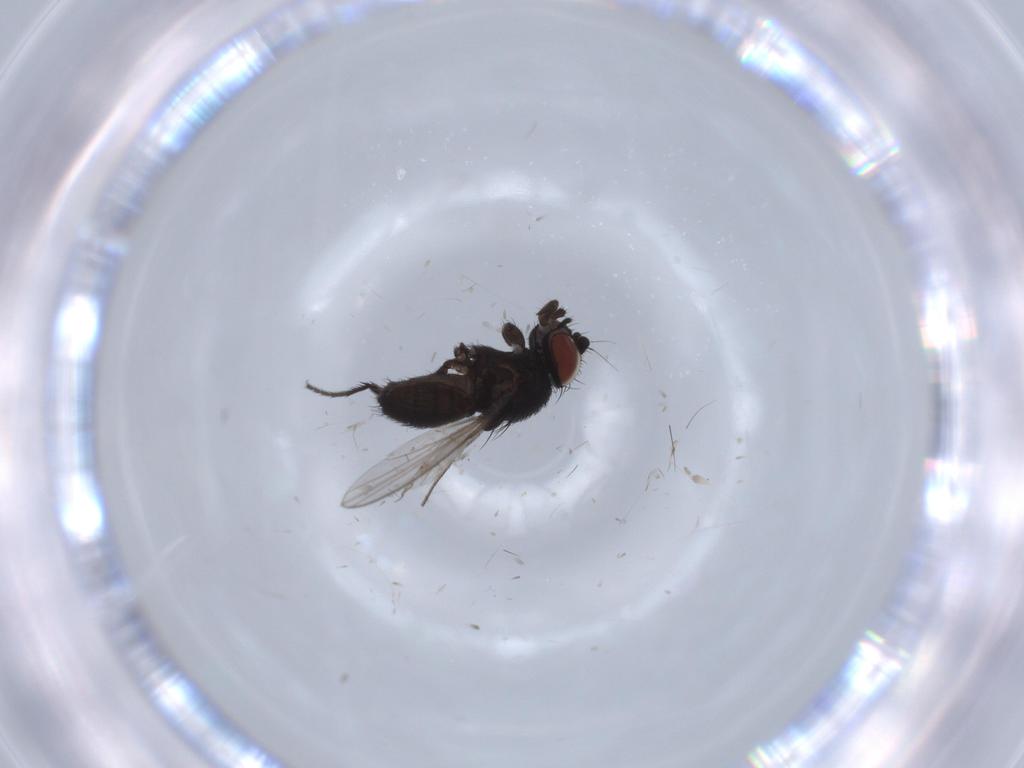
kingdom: Animalia
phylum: Arthropoda
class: Insecta
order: Diptera
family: Milichiidae
